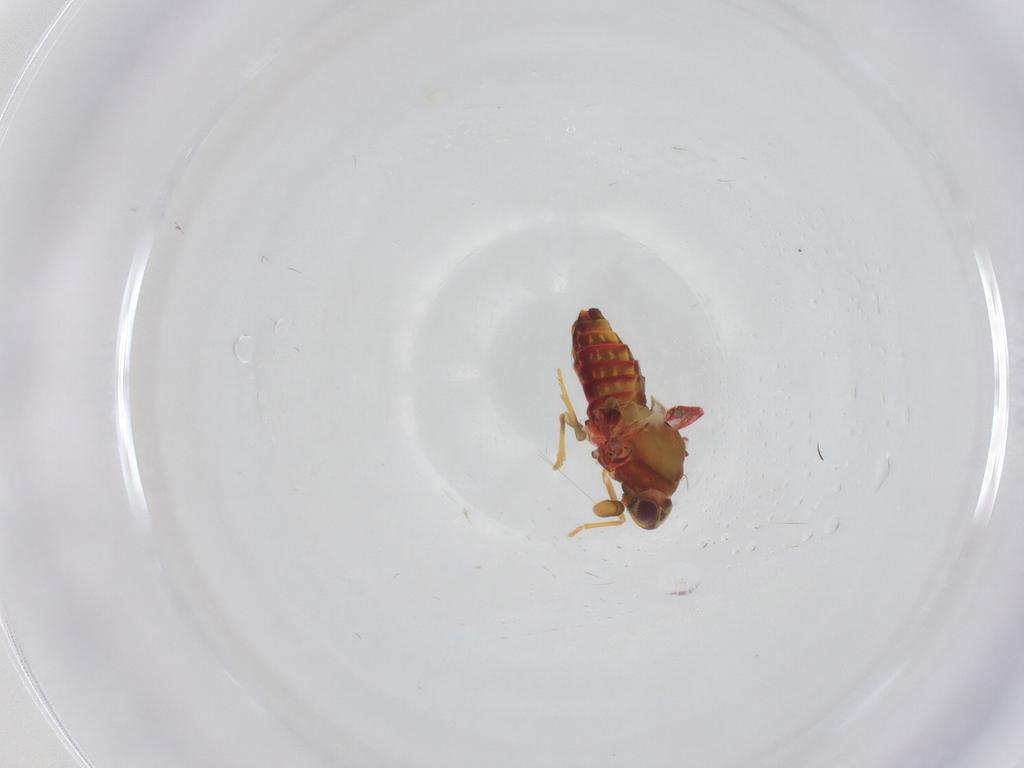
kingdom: Animalia
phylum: Arthropoda
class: Insecta
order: Hemiptera
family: Derbidae
